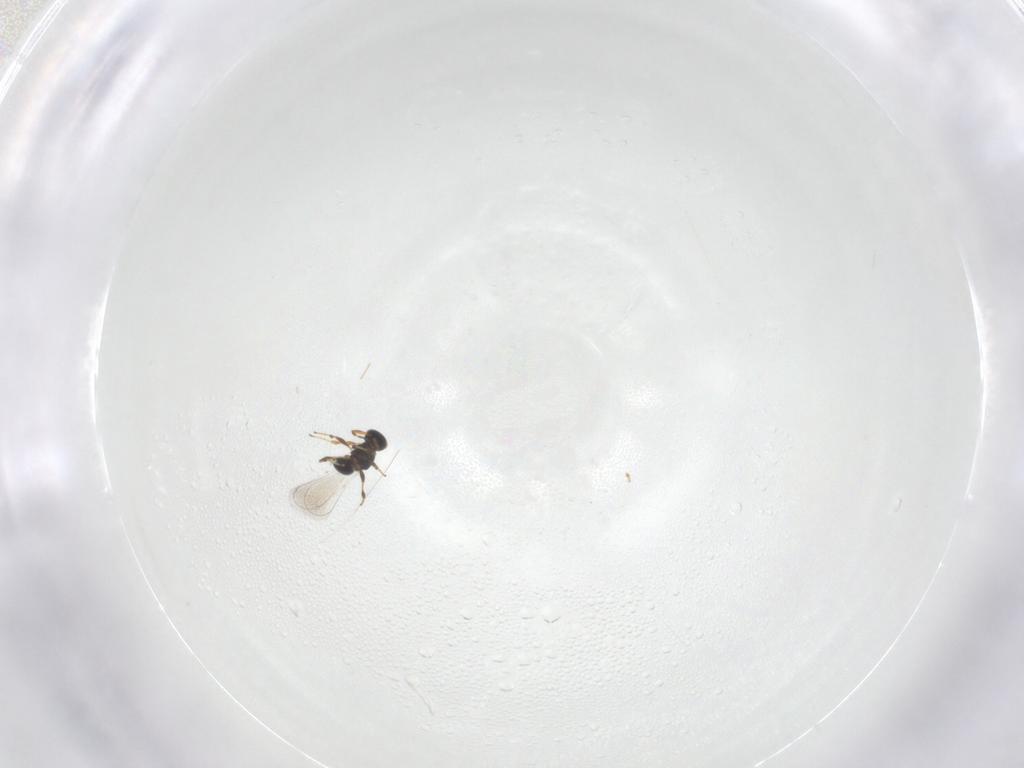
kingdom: Animalia
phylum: Arthropoda
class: Insecta
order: Hymenoptera
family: Platygastridae
